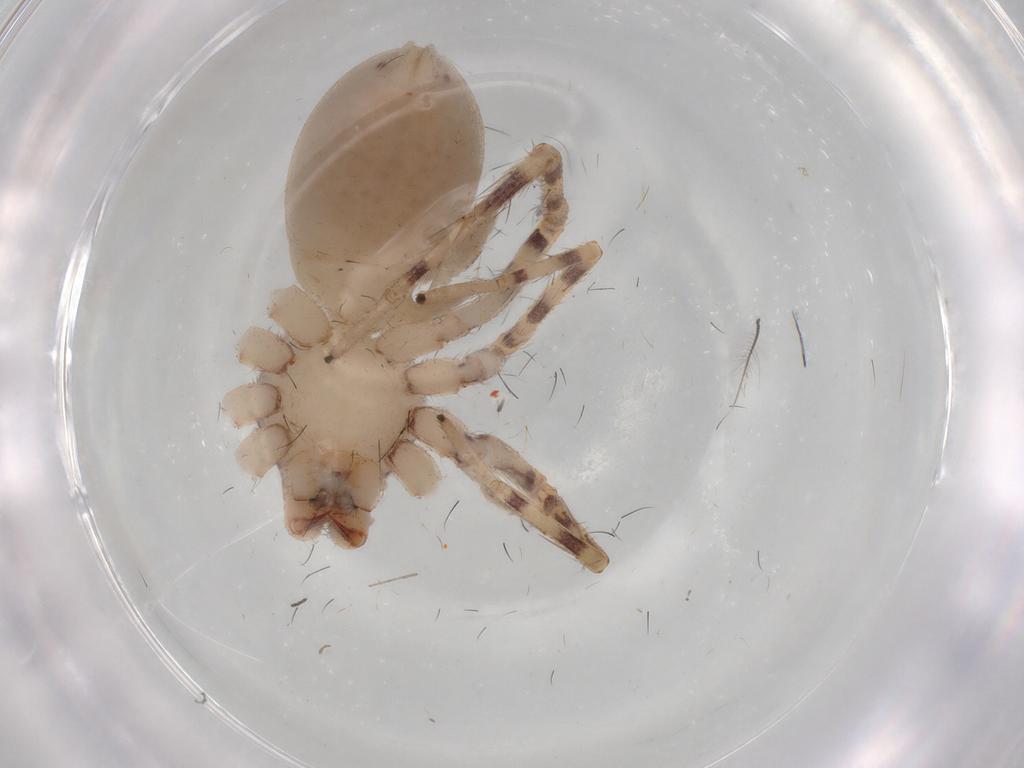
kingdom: Animalia
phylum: Arthropoda
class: Arachnida
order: Araneae
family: Corinnidae
